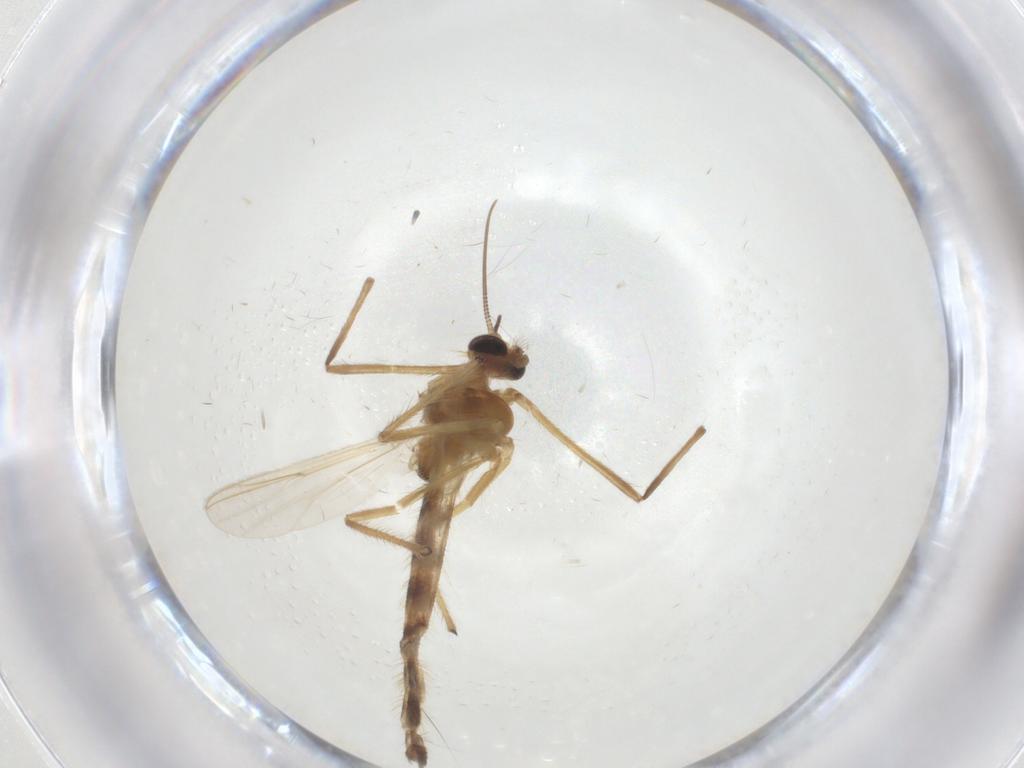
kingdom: Animalia
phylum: Arthropoda
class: Insecta
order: Diptera
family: Chironomidae
